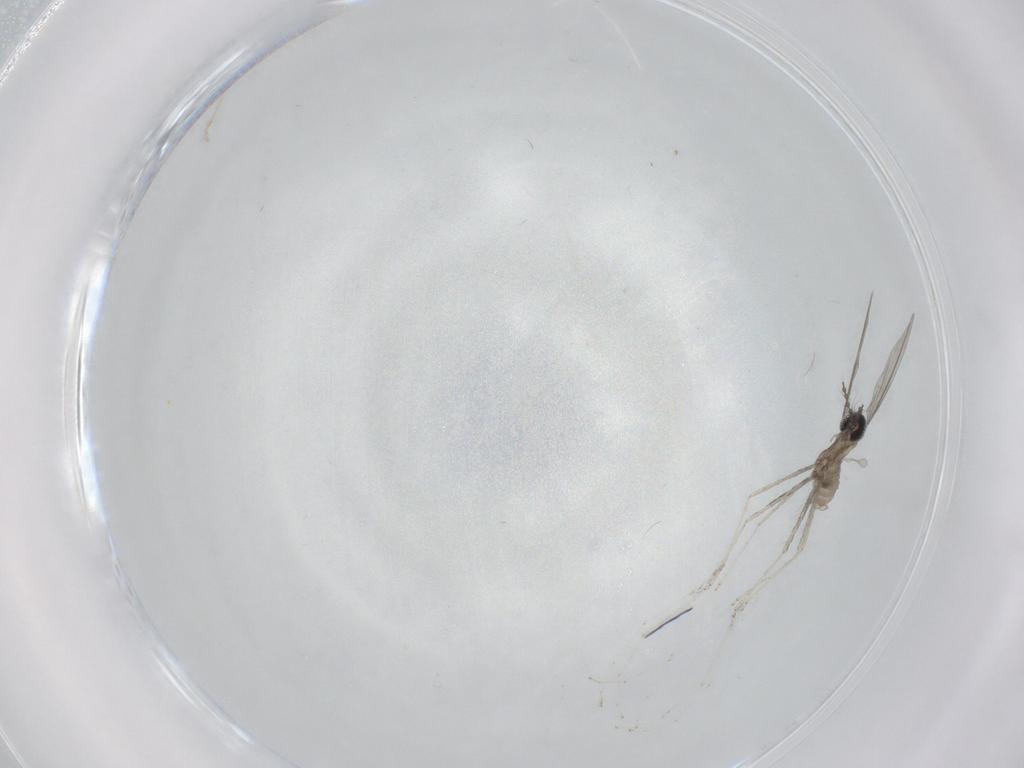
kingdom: Animalia
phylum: Arthropoda
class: Insecta
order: Diptera
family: Cecidomyiidae
